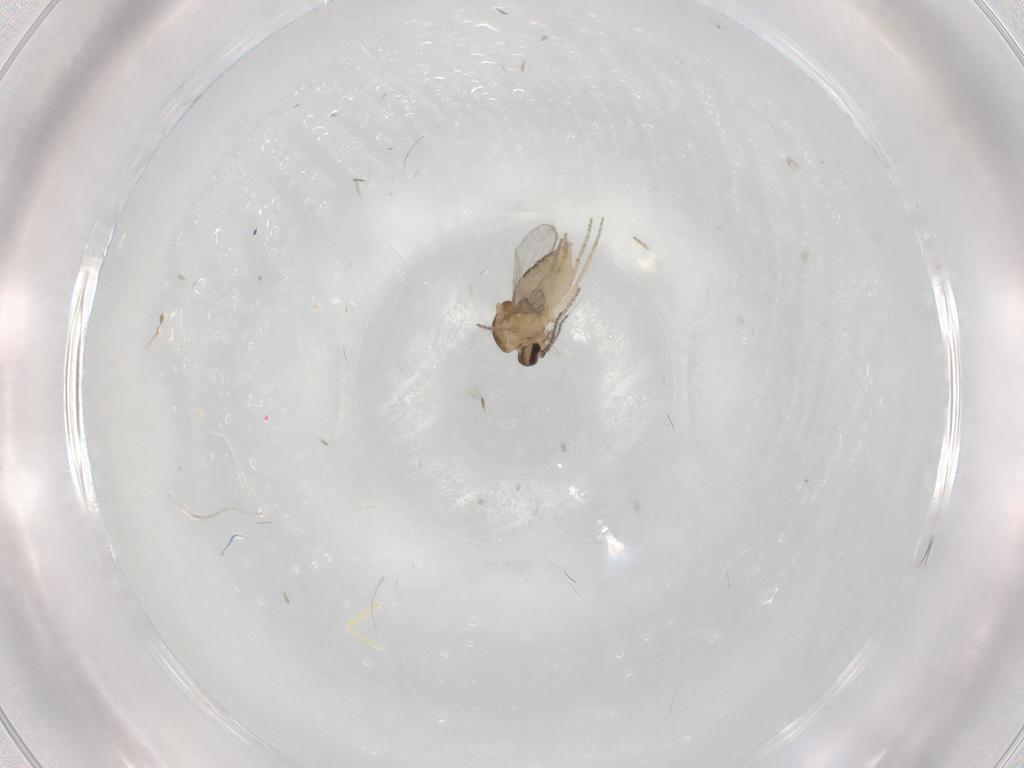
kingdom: Animalia
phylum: Arthropoda
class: Insecta
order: Diptera
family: Ceratopogonidae
